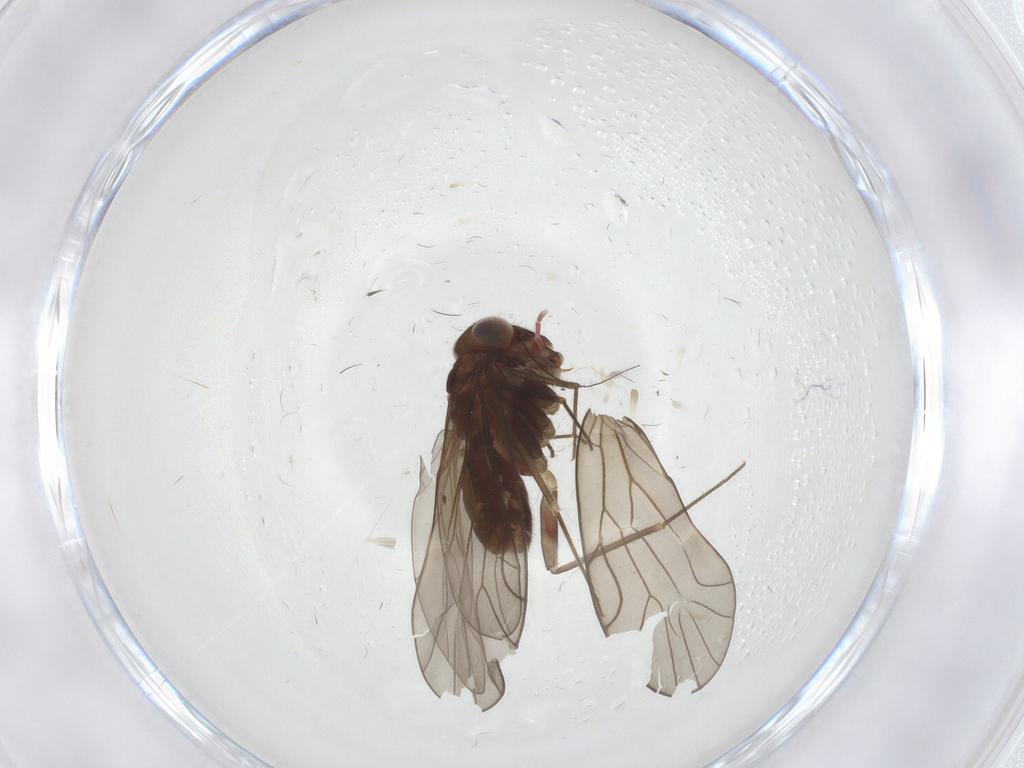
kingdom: Animalia
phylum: Arthropoda
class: Insecta
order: Psocodea
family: Philotarsidae
